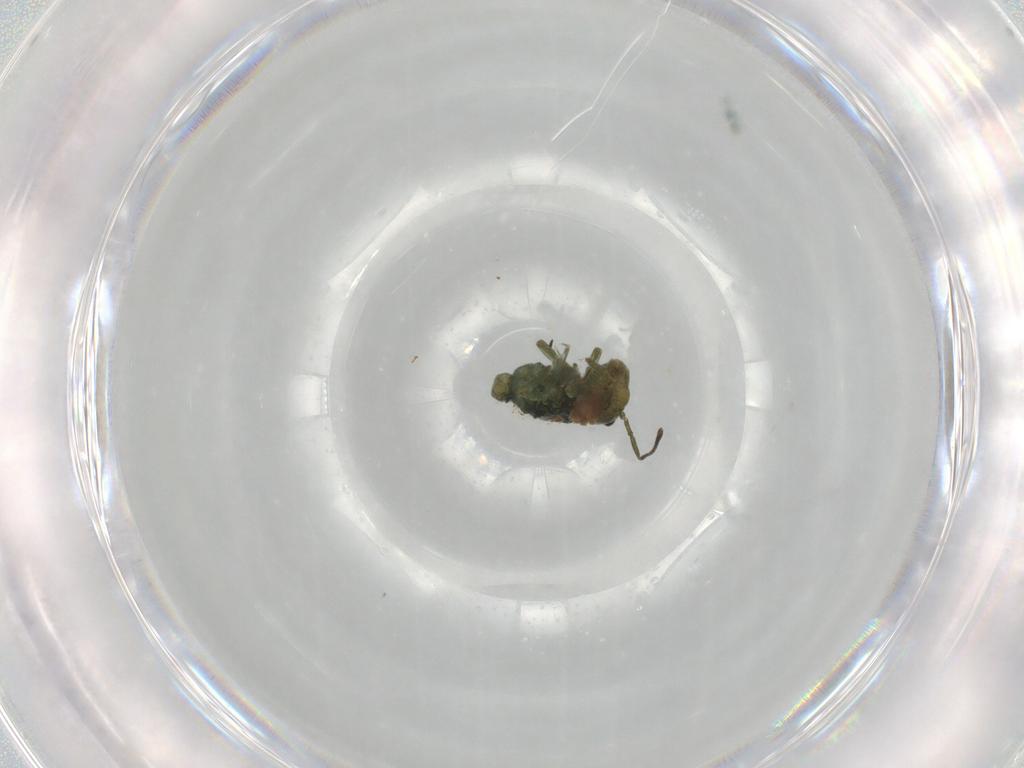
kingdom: Animalia
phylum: Arthropoda
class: Collembola
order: Symphypleona
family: Sminthuridae
